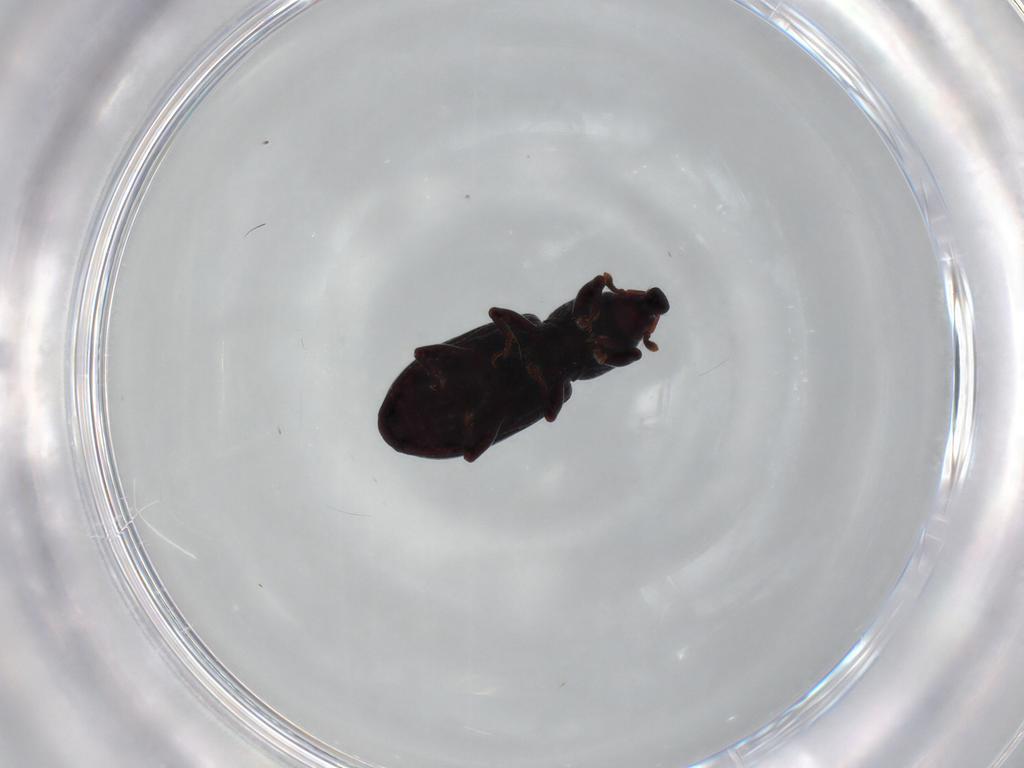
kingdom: Animalia
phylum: Arthropoda
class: Insecta
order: Coleoptera
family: Curculionidae
